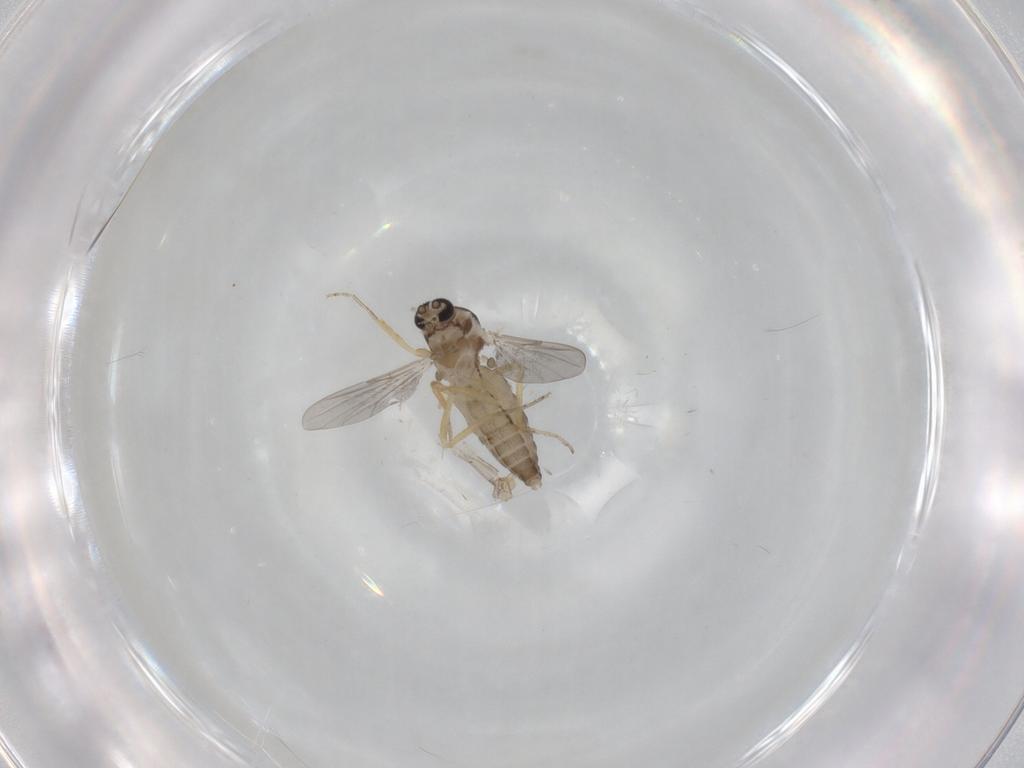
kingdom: Animalia
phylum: Arthropoda
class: Insecta
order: Diptera
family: Ceratopogonidae
